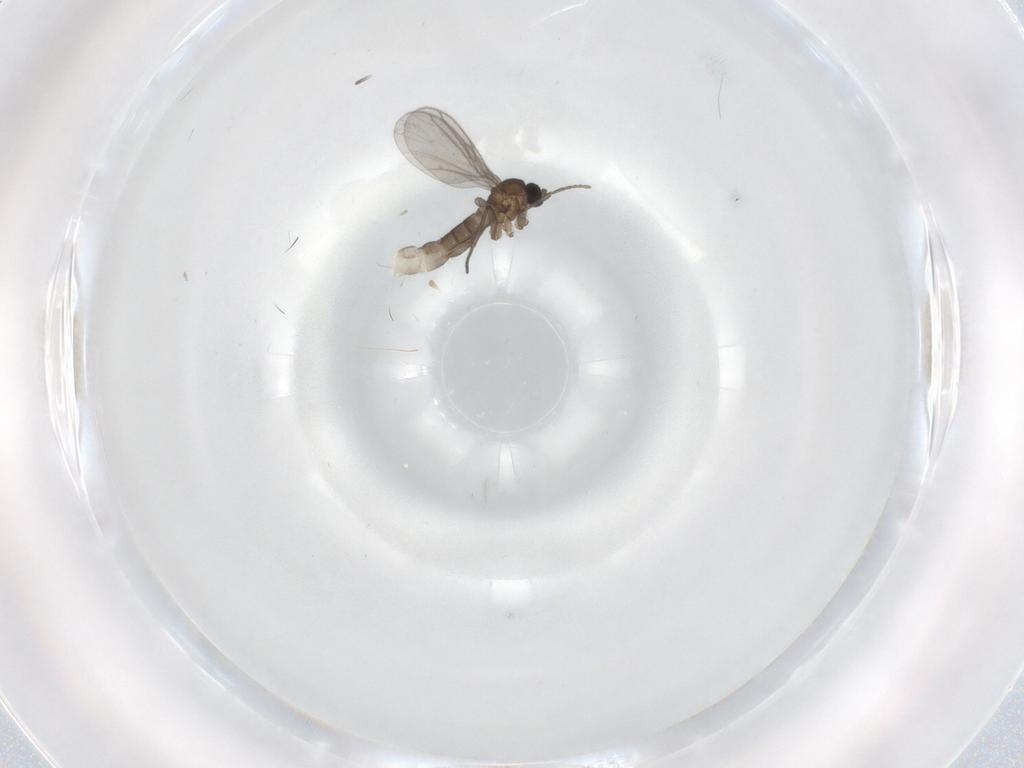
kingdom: Animalia
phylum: Arthropoda
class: Insecta
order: Diptera
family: Sciaridae
